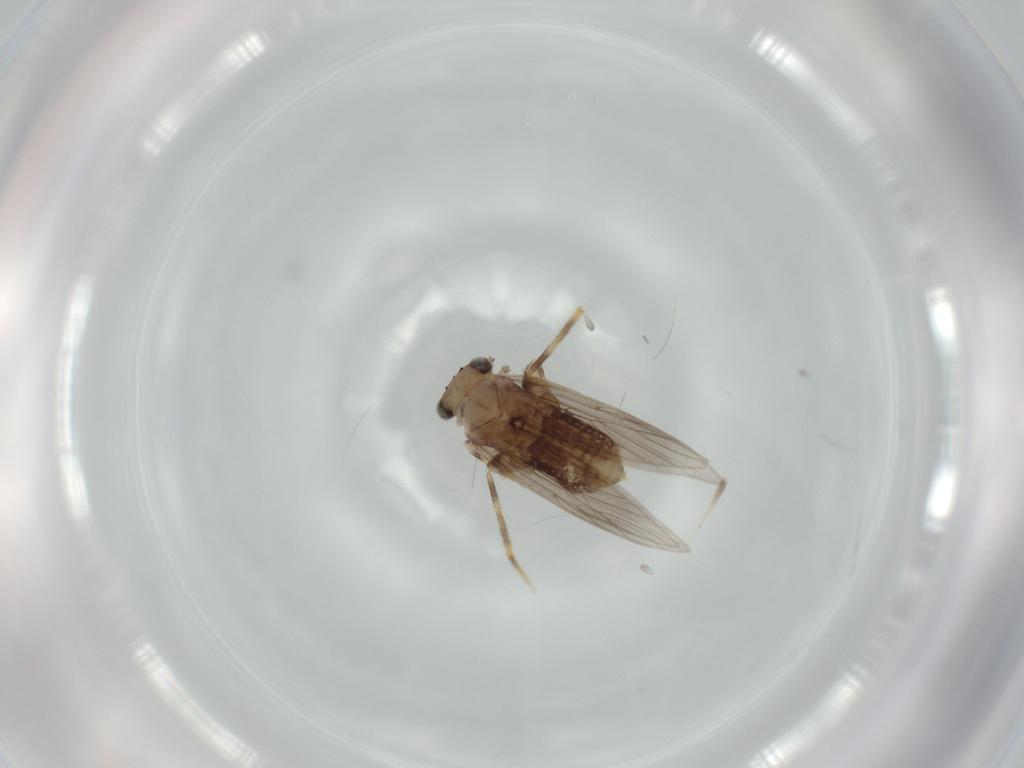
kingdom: Animalia
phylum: Arthropoda
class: Insecta
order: Psocodea
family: Lepidopsocidae
